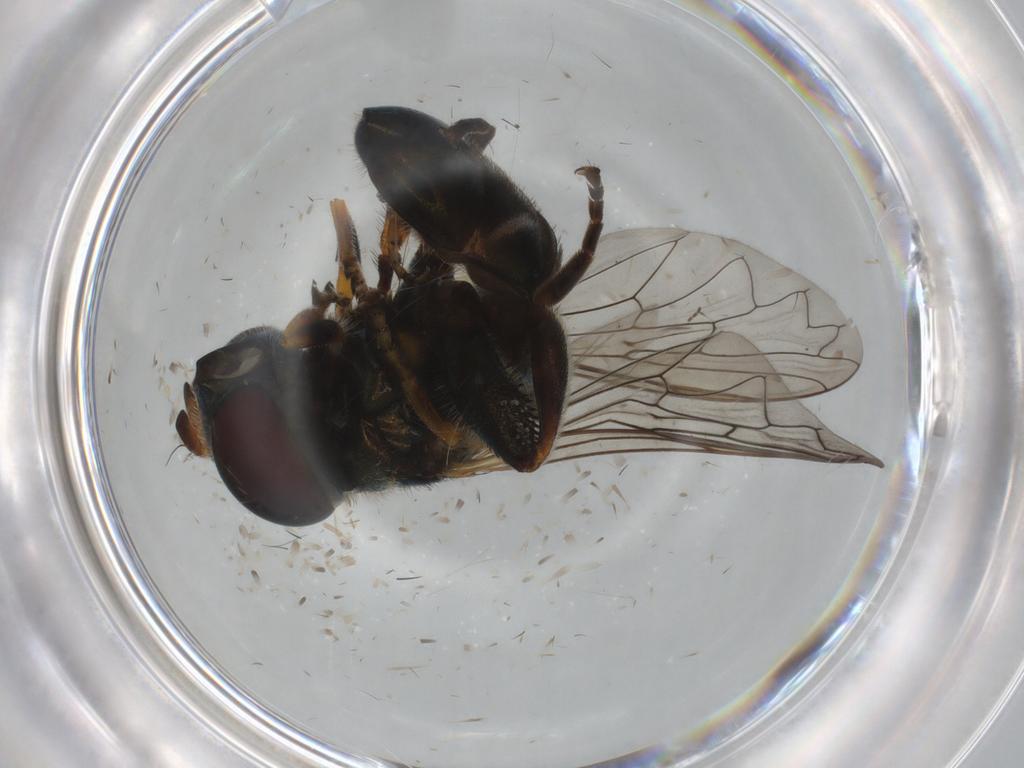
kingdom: Animalia
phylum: Arthropoda
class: Insecta
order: Diptera
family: Syrphidae
